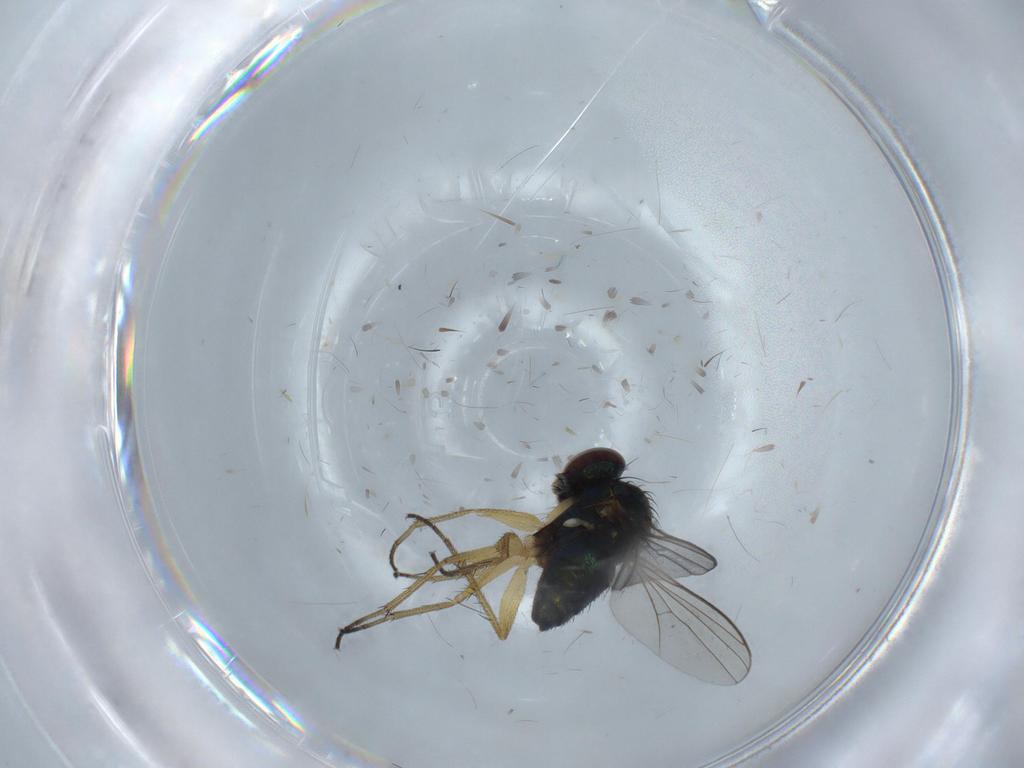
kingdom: Animalia
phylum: Arthropoda
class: Insecta
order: Diptera
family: Dolichopodidae
